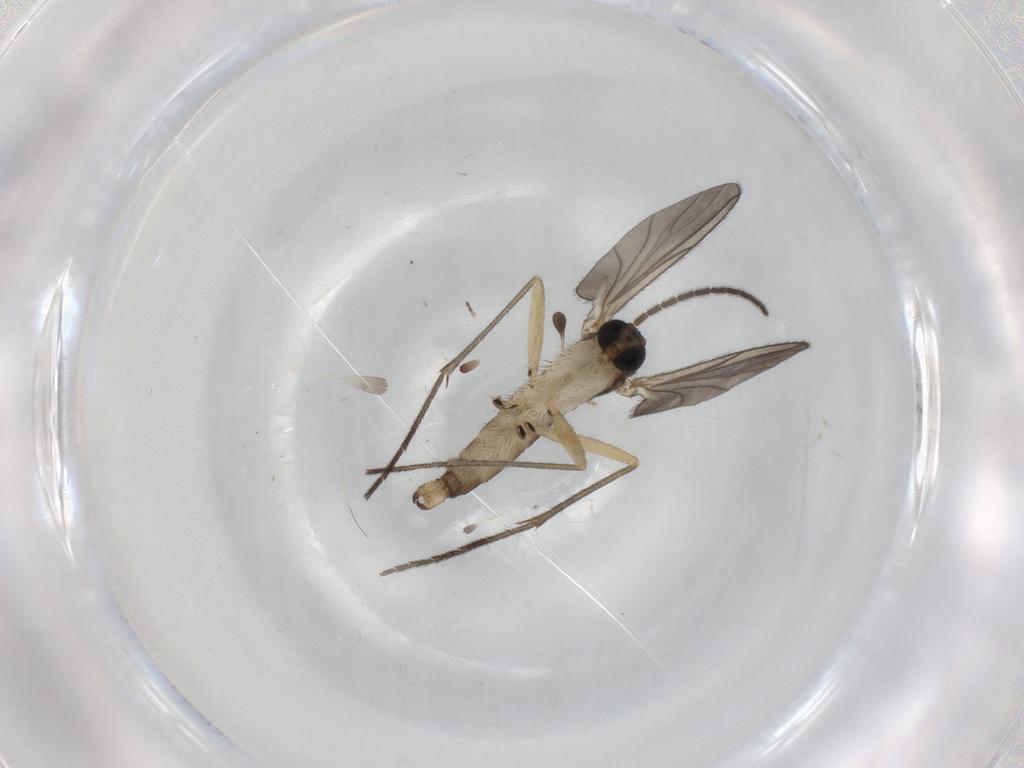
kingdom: Animalia
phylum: Arthropoda
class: Insecta
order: Diptera
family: Sciaridae
